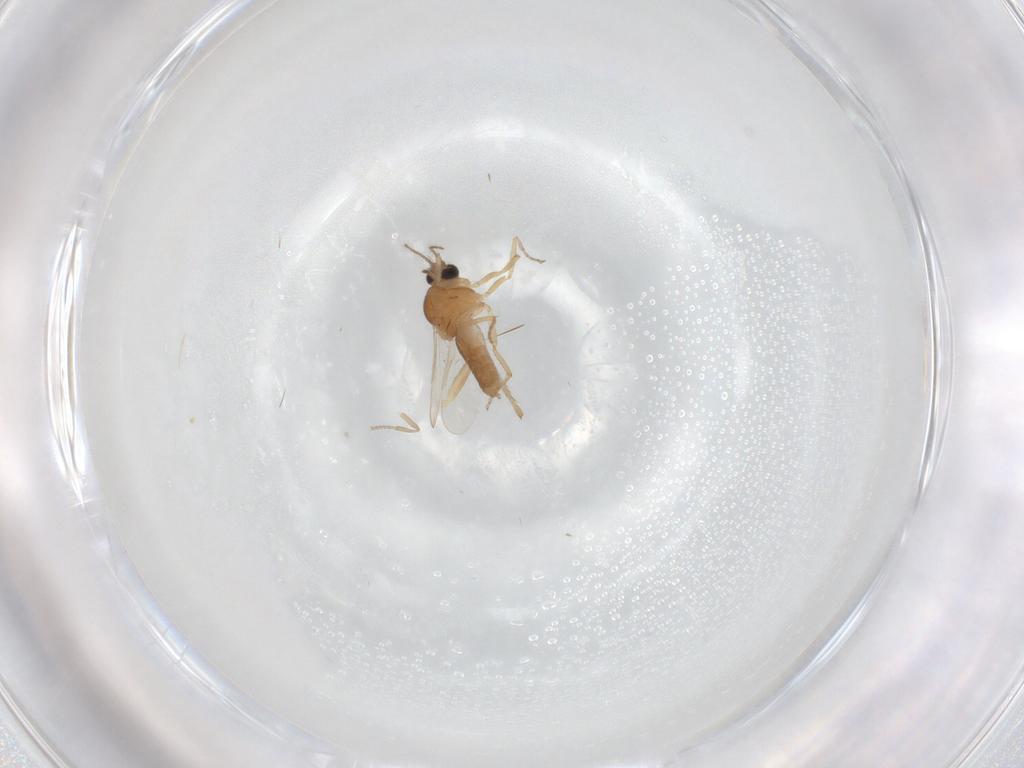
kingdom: Animalia
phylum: Arthropoda
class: Insecta
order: Diptera
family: Ceratopogonidae
